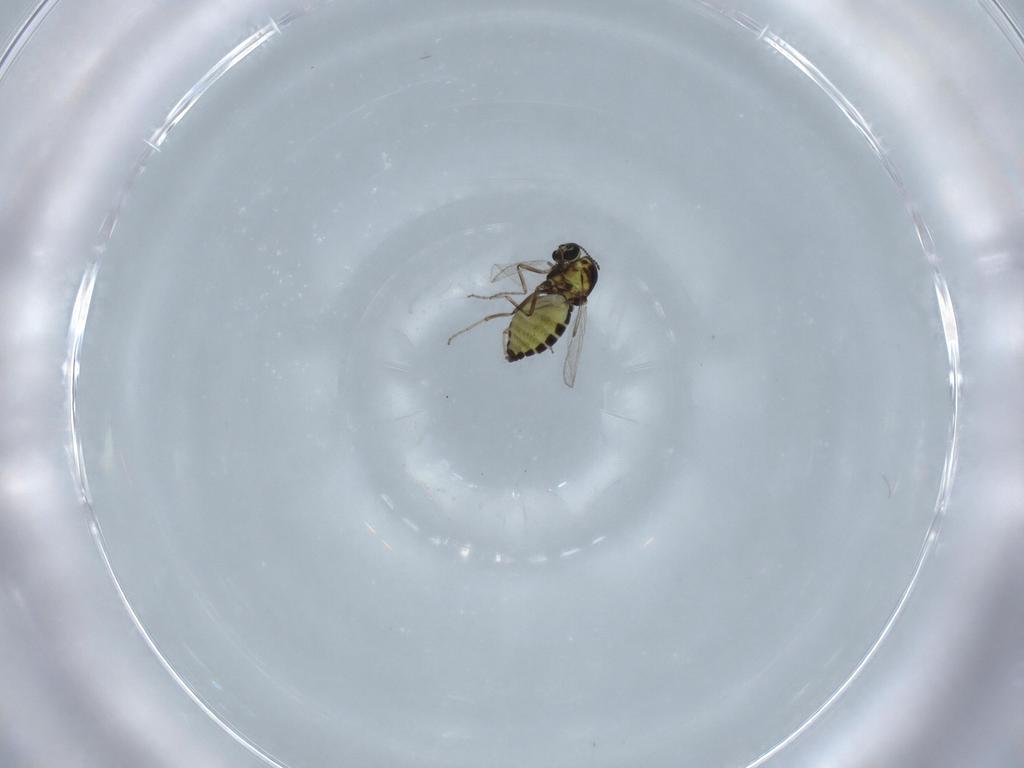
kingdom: Animalia
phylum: Arthropoda
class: Insecta
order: Diptera
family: Ceratopogonidae
